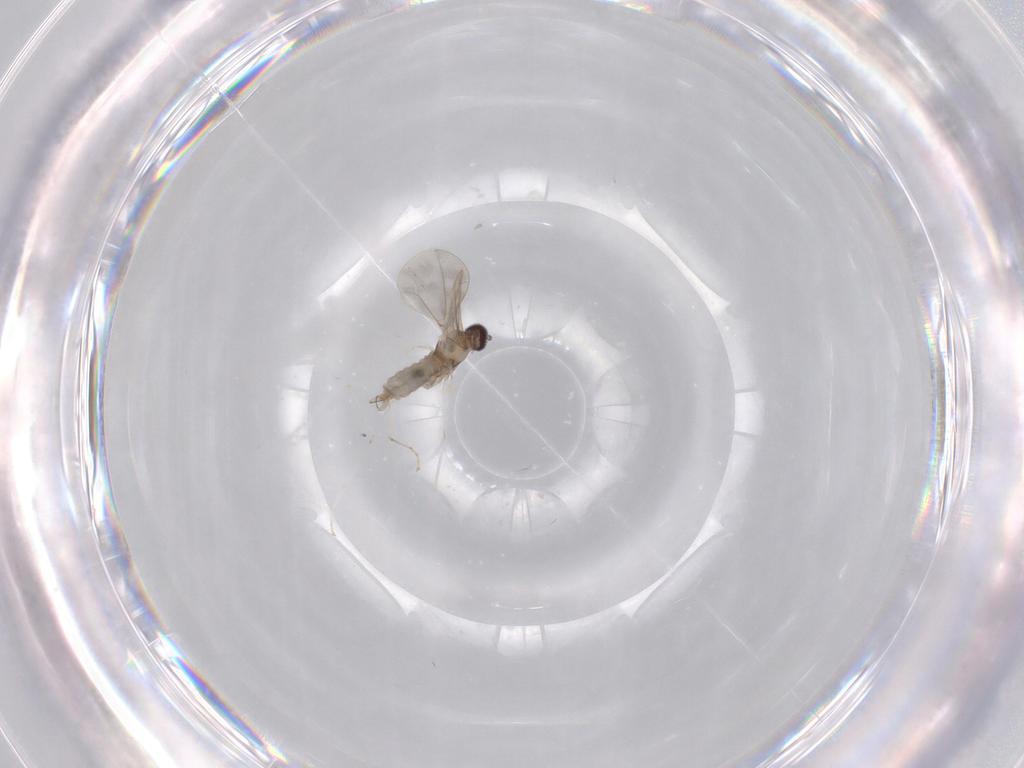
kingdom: Animalia
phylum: Arthropoda
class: Insecta
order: Diptera
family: Cecidomyiidae
